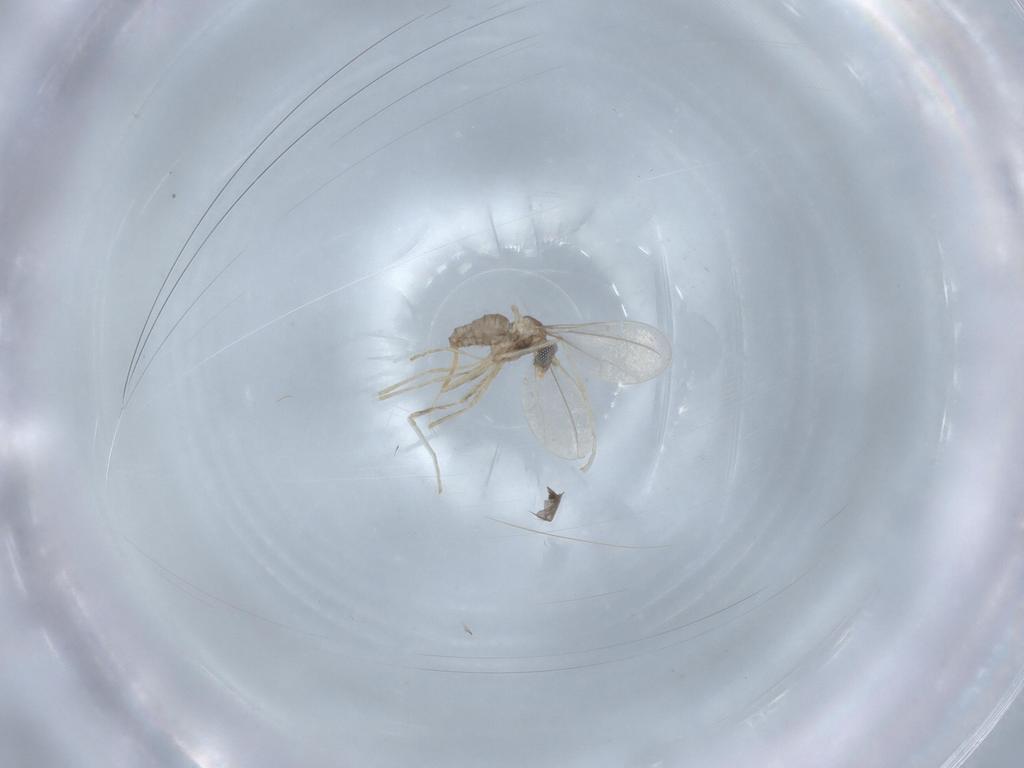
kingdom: Animalia
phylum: Arthropoda
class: Insecta
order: Diptera
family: Cecidomyiidae
